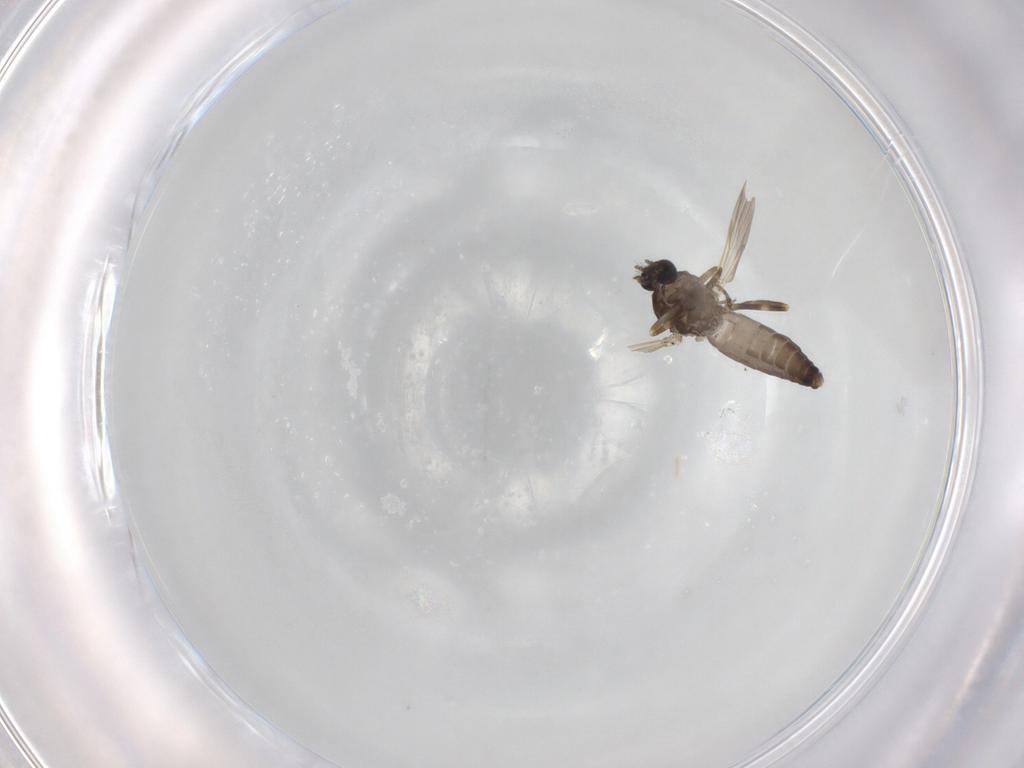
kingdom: Animalia
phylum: Arthropoda
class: Insecta
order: Diptera
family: Ceratopogonidae
